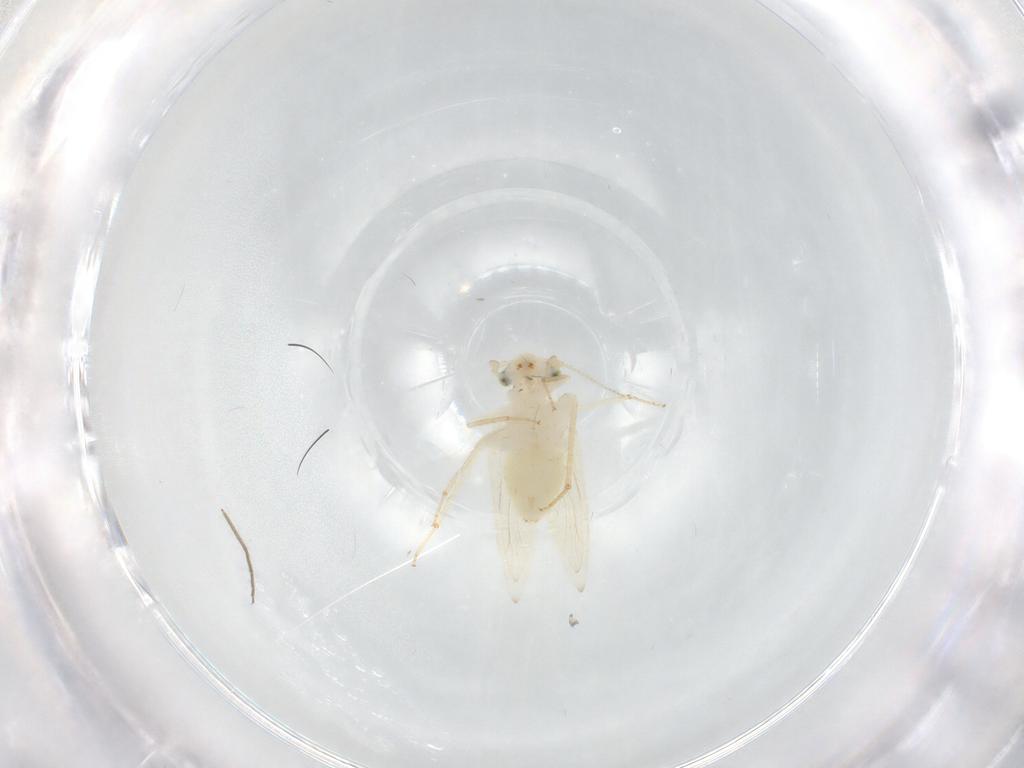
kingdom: Animalia
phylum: Arthropoda
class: Insecta
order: Psocodea
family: Lepidopsocidae
